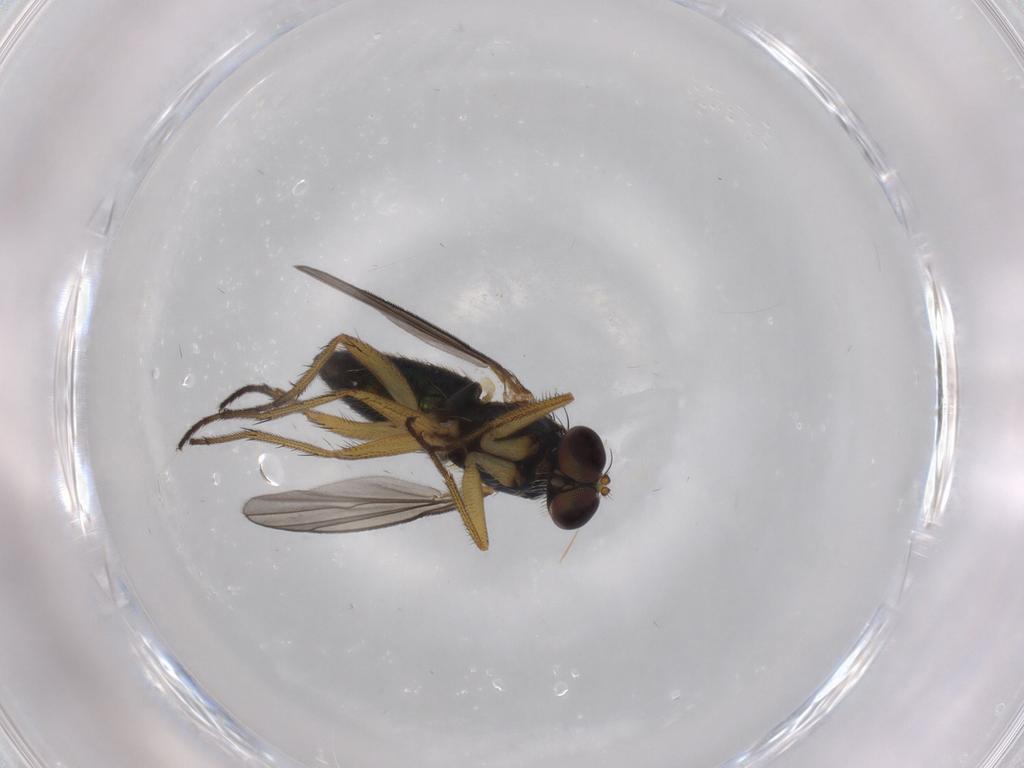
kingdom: Animalia
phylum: Arthropoda
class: Insecta
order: Diptera
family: Dolichopodidae
